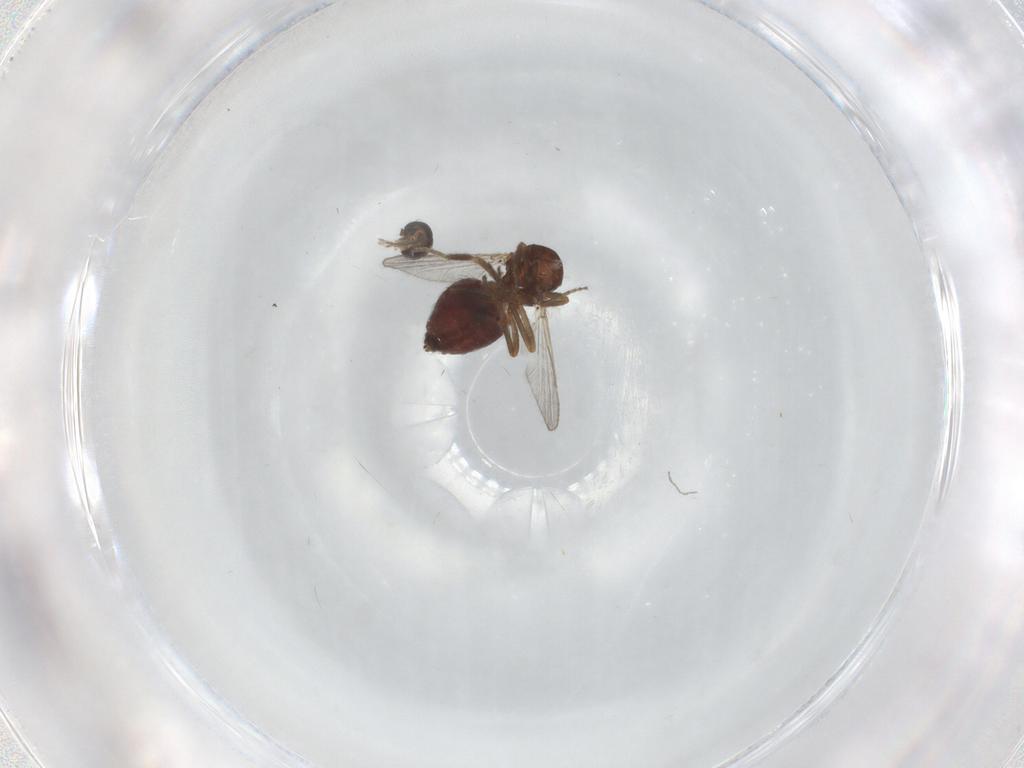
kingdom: Animalia
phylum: Arthropoda
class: Insecta
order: Diptera
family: Ceratopogonidae
